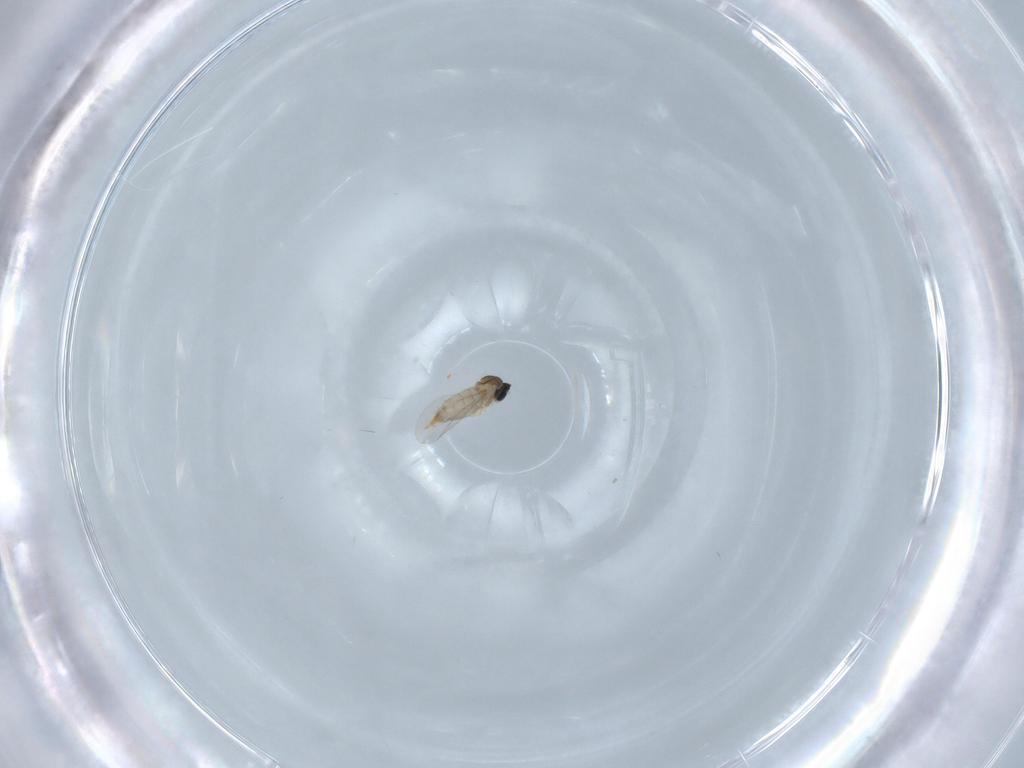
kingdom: Animalia
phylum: Arthropoda
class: Insecta
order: Diptera
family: Cecidomyiidae
